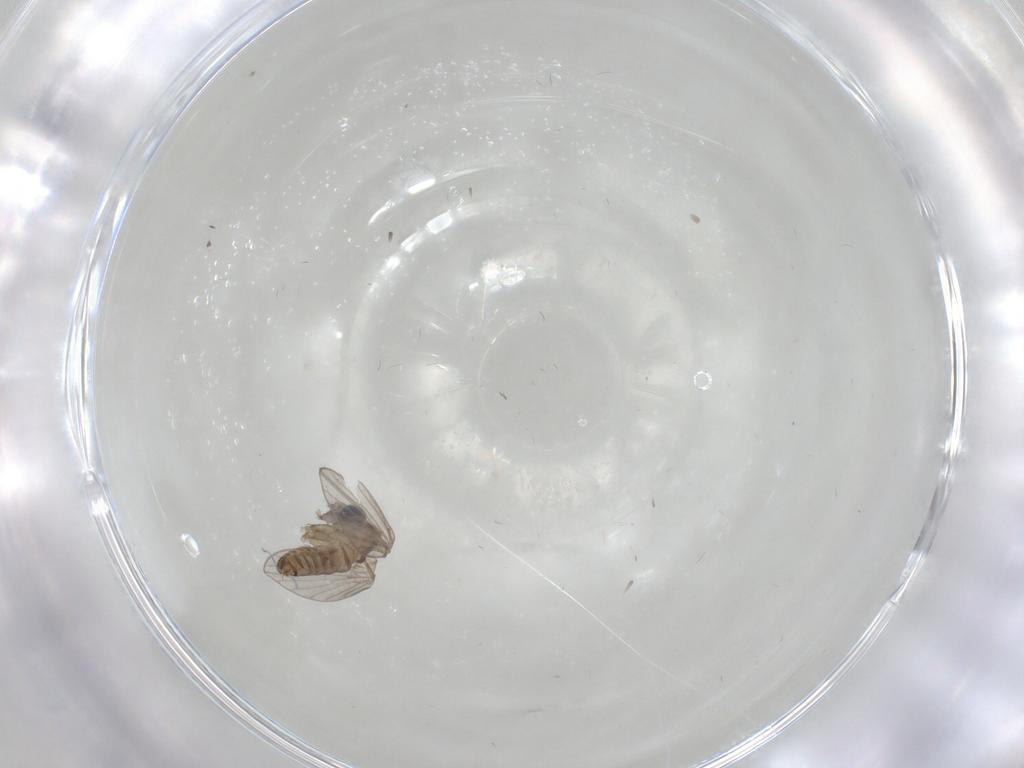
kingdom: Animalia
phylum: Arthropoda
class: Insecta
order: Diptera
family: Psychodidae
